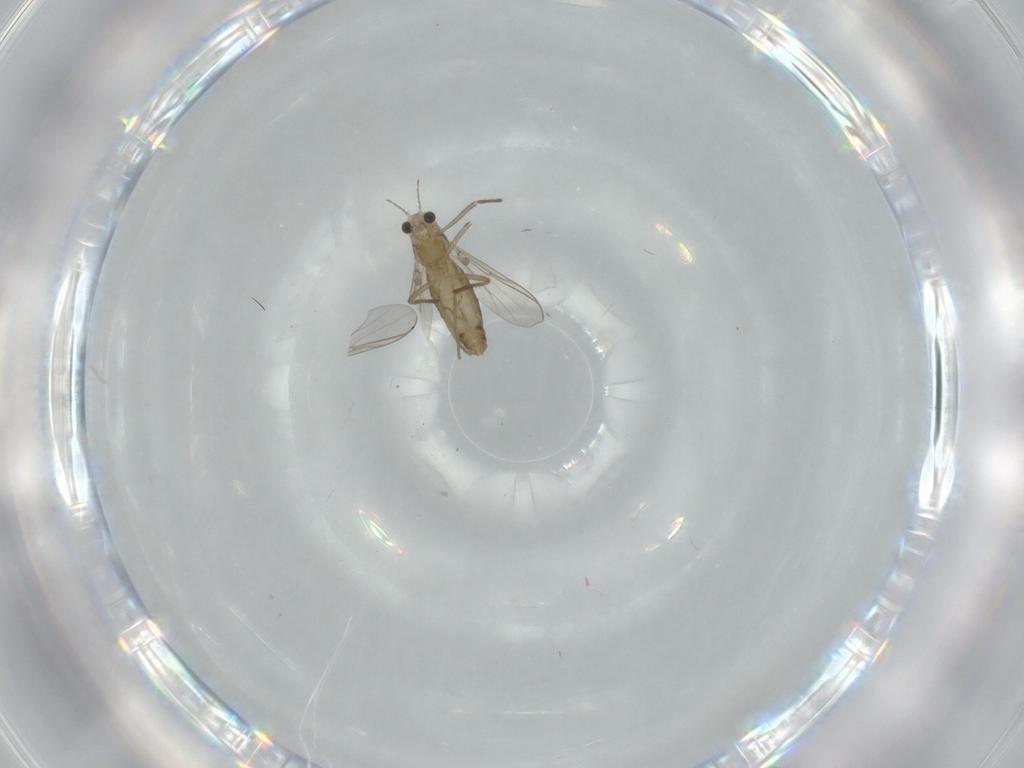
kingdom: Animalia
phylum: Arthropoda
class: Insecta
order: Diptera
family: Chironomidae
